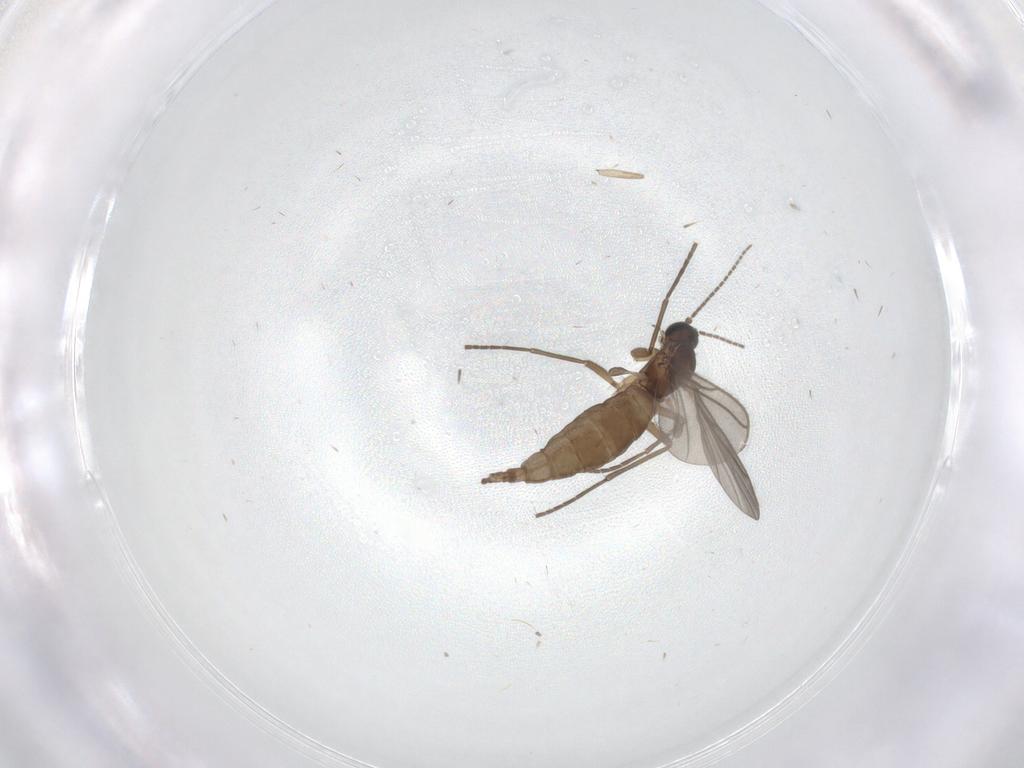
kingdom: Animalia
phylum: Arthropoda
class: Insecta
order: Diptera
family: Sciaridae
